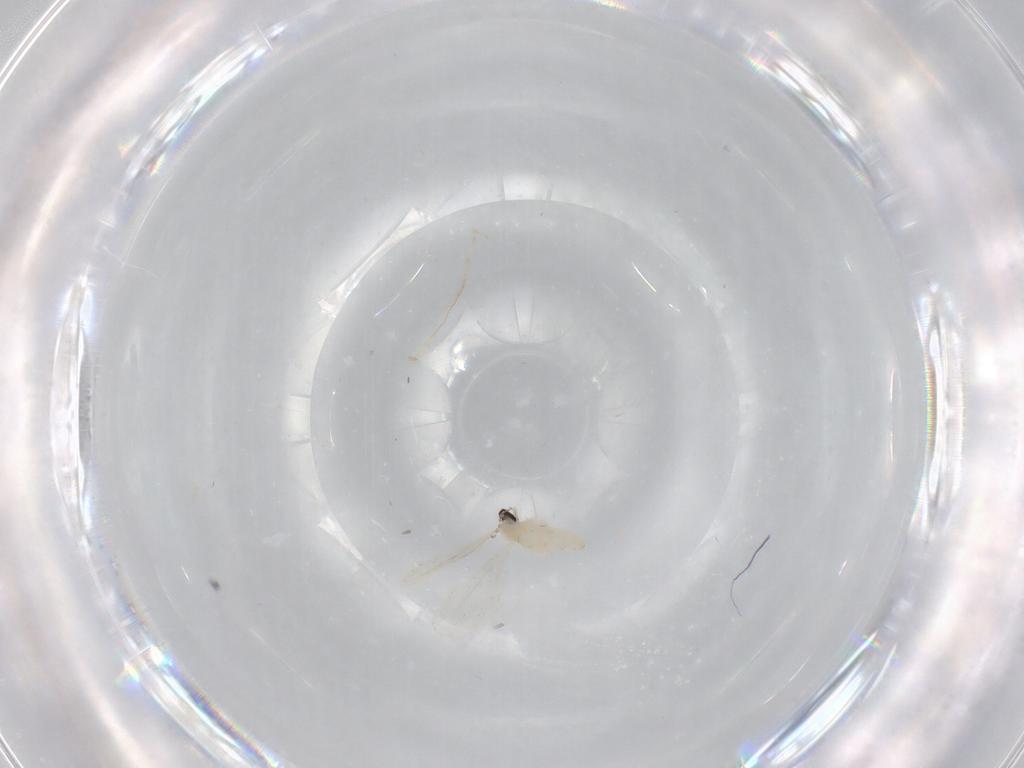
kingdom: Animalia
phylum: Arthropoda
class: Insecta
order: Diptera
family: Cecidomyiidae
